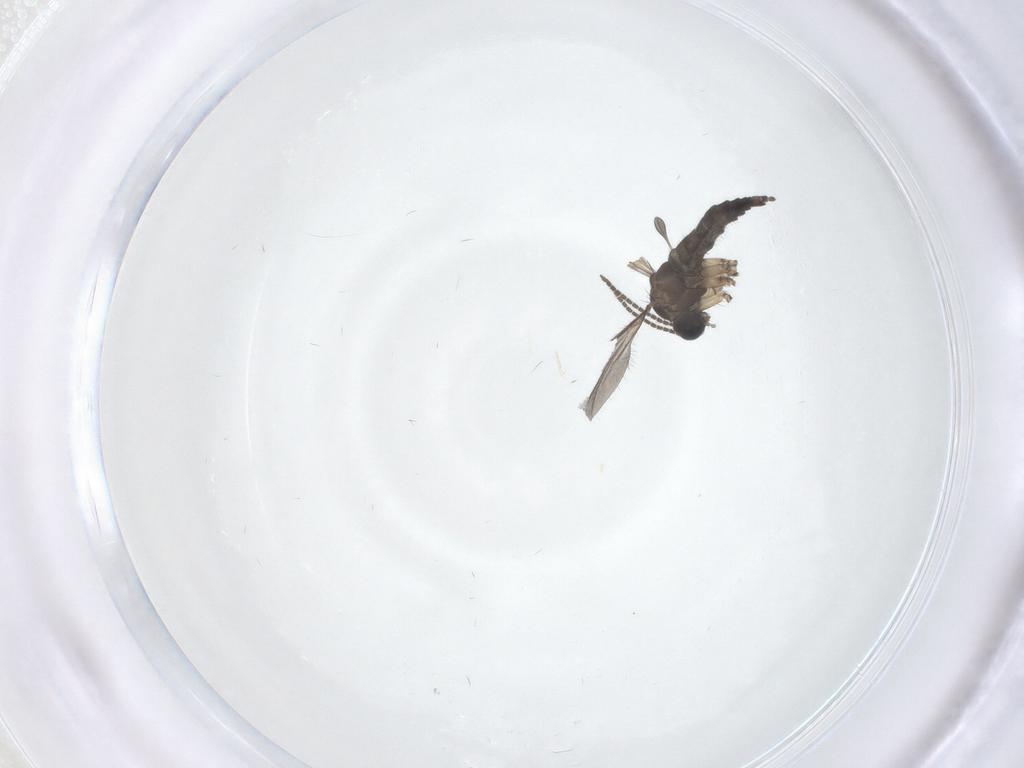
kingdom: Animalia
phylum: Arthropoda
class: Insecta
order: Diptera
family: Sciaridae
